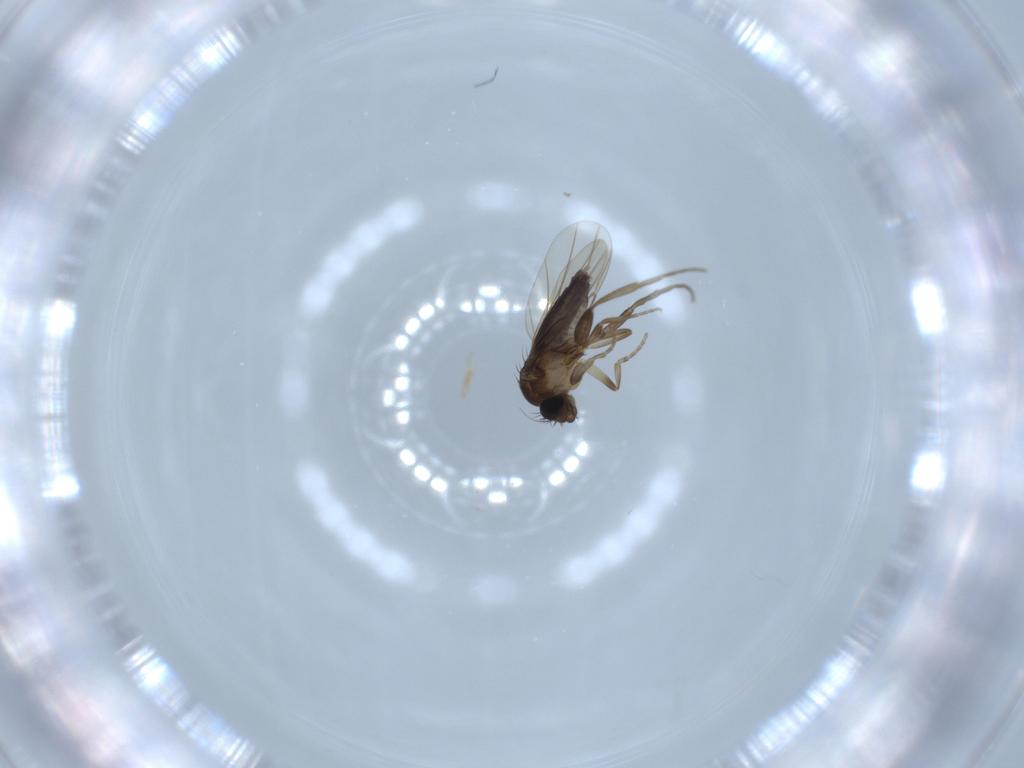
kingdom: Animalia
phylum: Arthropoda
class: Insecta
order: Diptera
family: Phoridae
